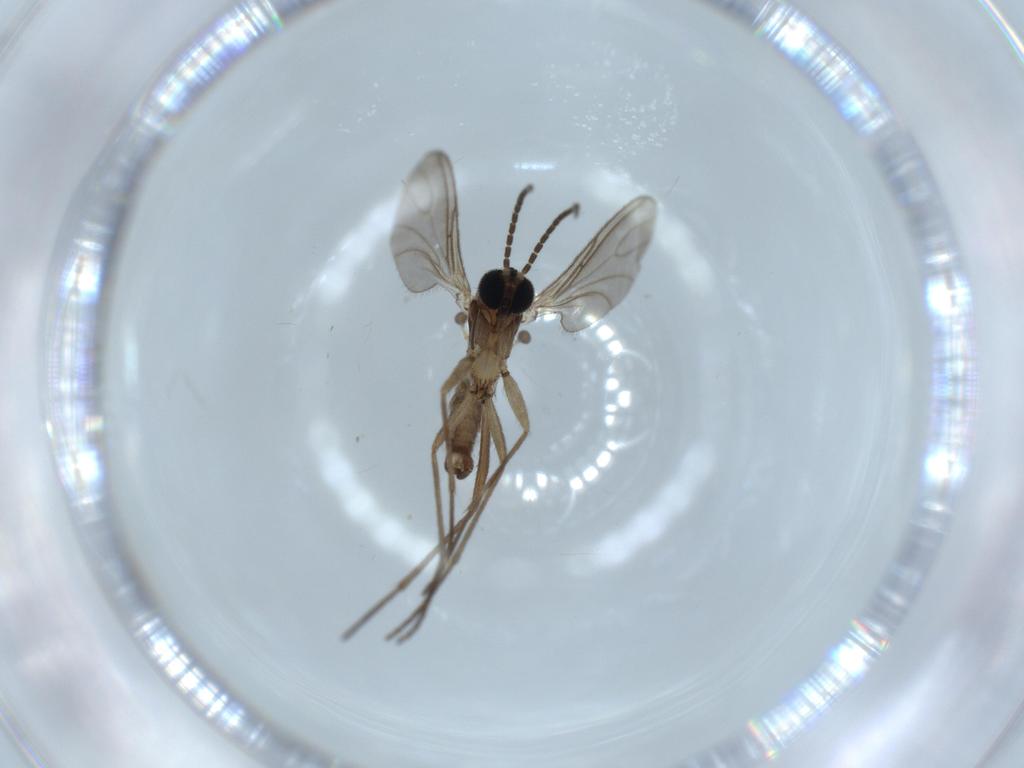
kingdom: Animalia
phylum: Arthropoda
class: Insecta
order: Diptera
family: Sciaridae
